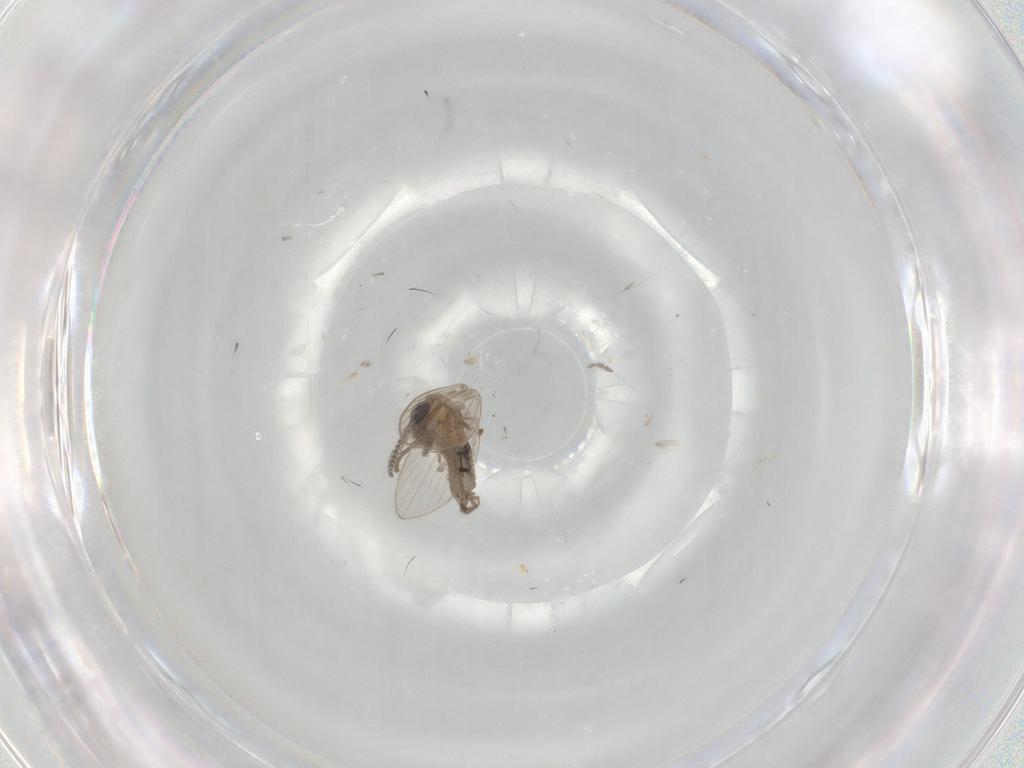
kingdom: Animalia
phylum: Arthropoda
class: Insecta
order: Diptera
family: Psychodidae
